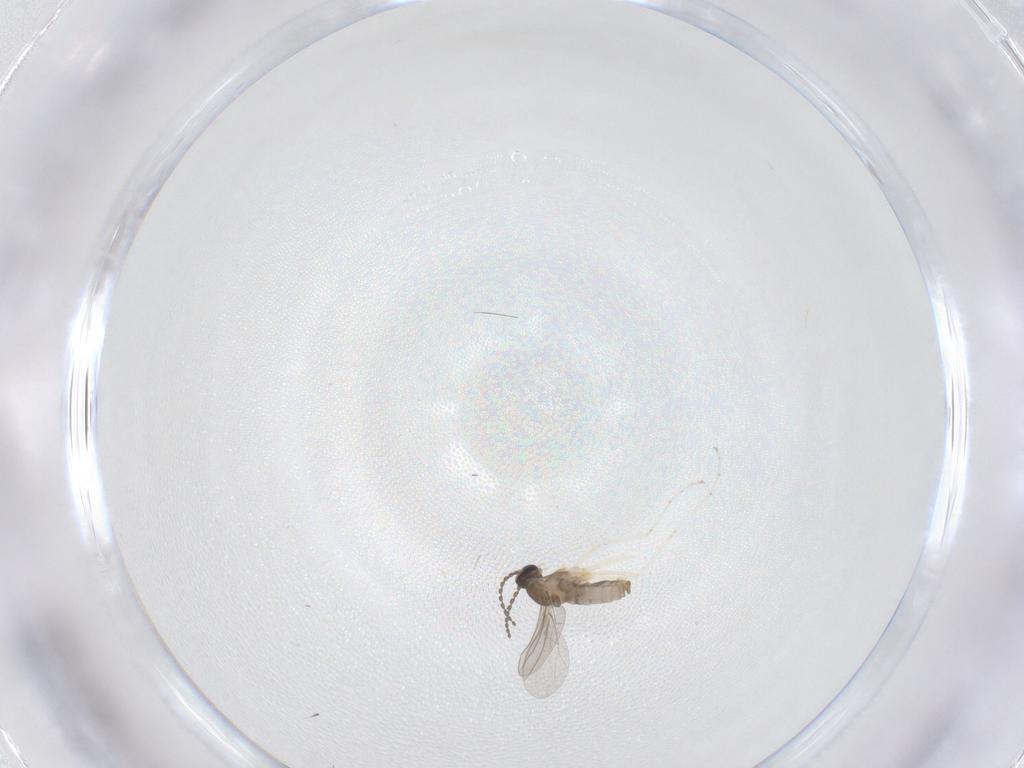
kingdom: Animalia
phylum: Arthropoda
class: Insecta
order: Diptera
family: Cecidomyiidae
